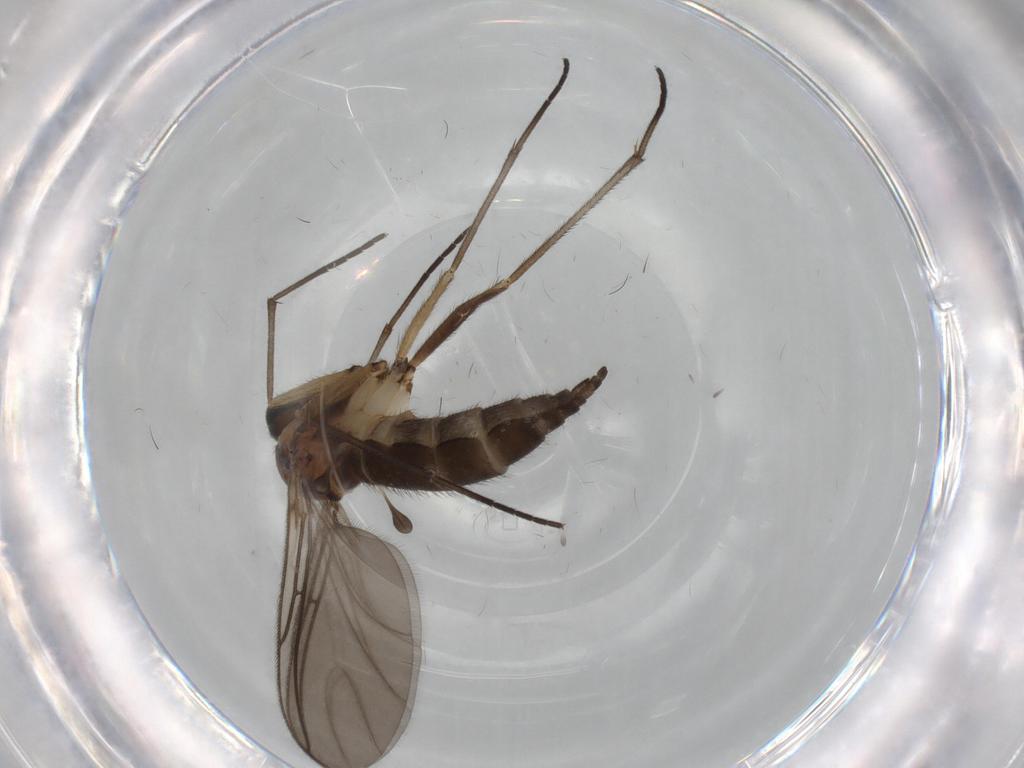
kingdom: Animalia
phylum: Arthropoda
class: Insecta
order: Diptera
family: Sciaridae
